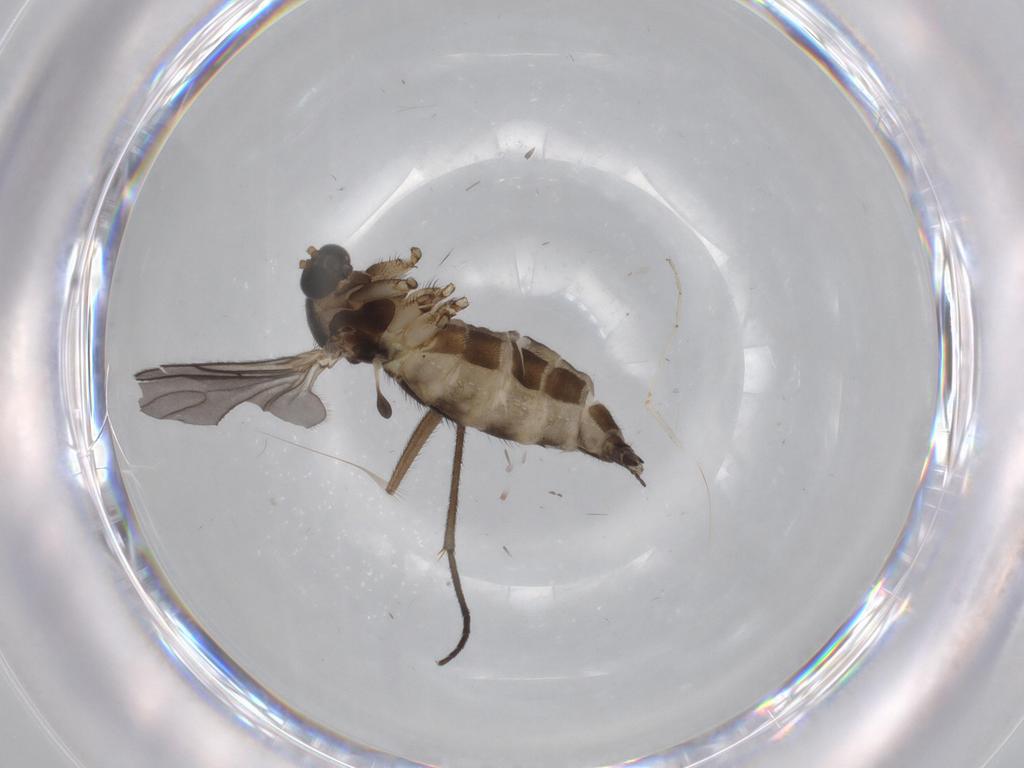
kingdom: Animalia
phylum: Arthropoda
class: Insecta
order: Diptera
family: Sciaridae
